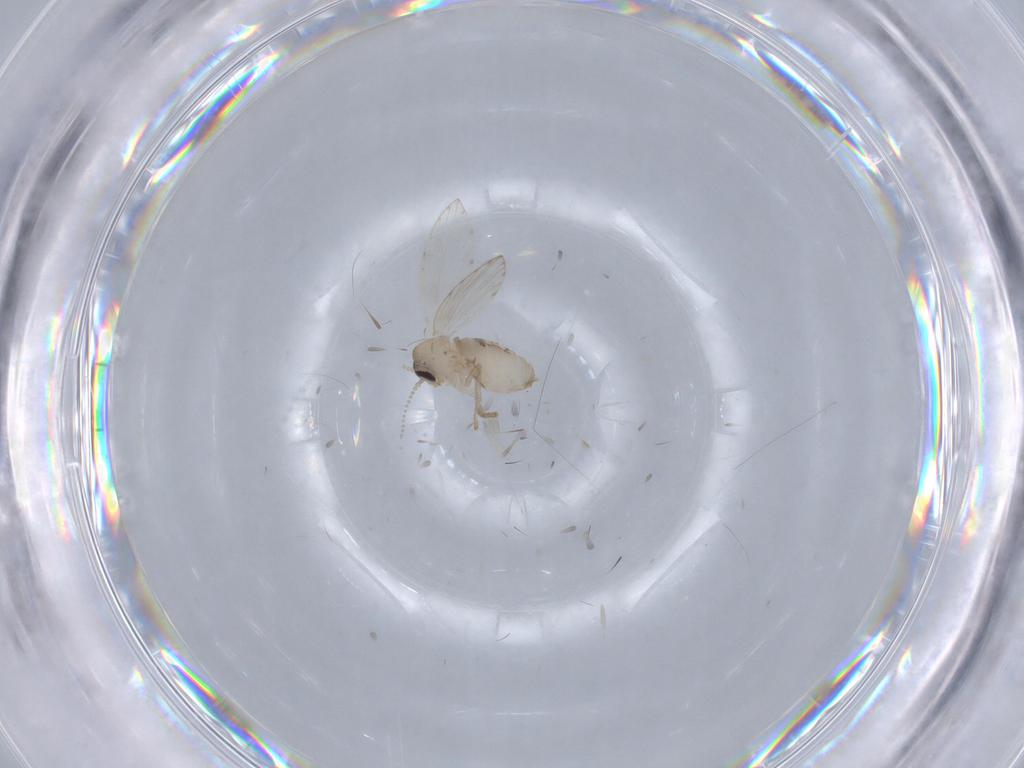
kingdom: Animalia
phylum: Arthropoda
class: Insecta
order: Diptera
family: Psychodidae
